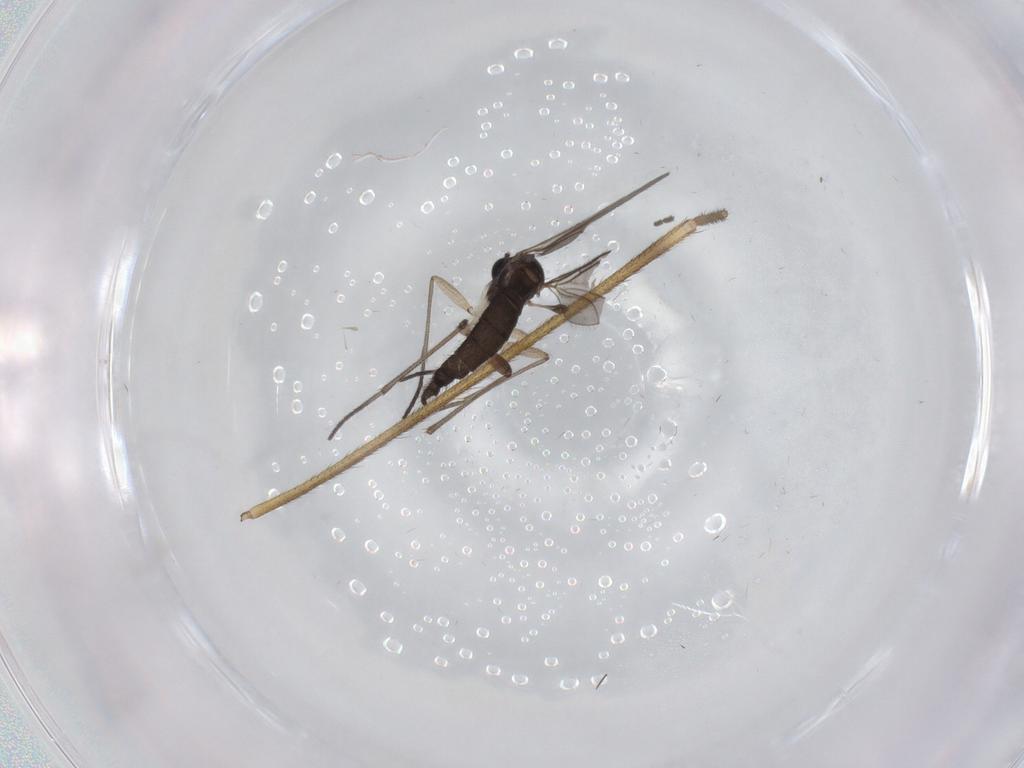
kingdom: Animalia
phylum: Arthropoda
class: Insecta
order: Diptera
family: Sciaridae
